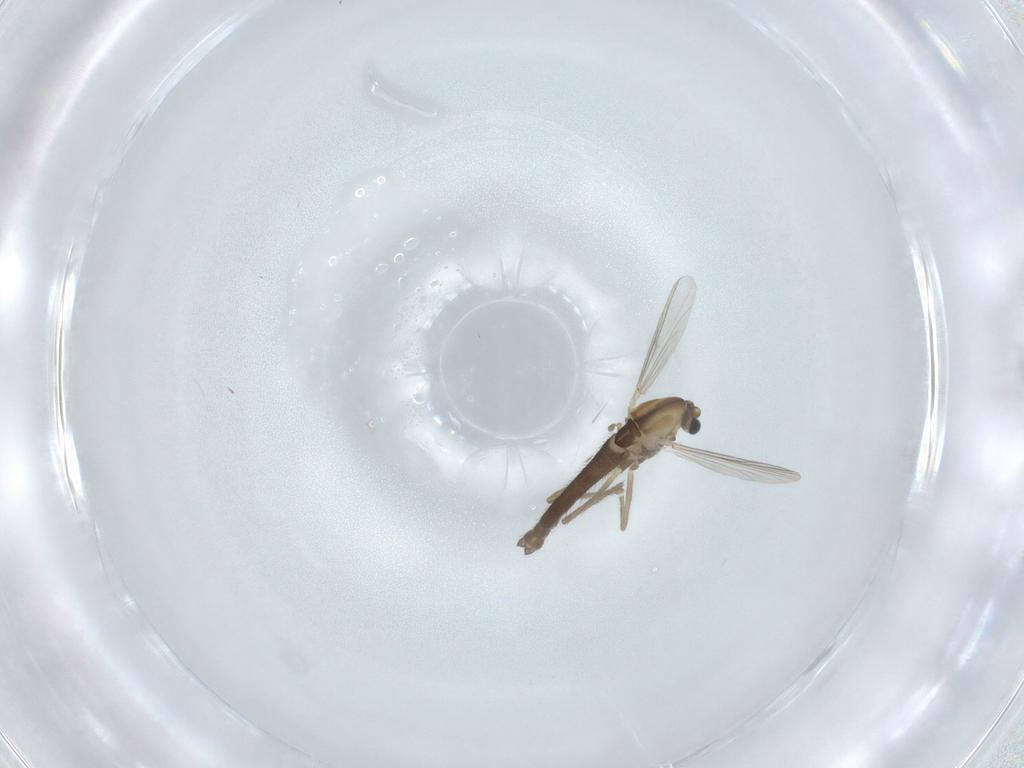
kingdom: Animalia
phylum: Arthropoda
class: Insecta
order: Diptera
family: Chironomidae
